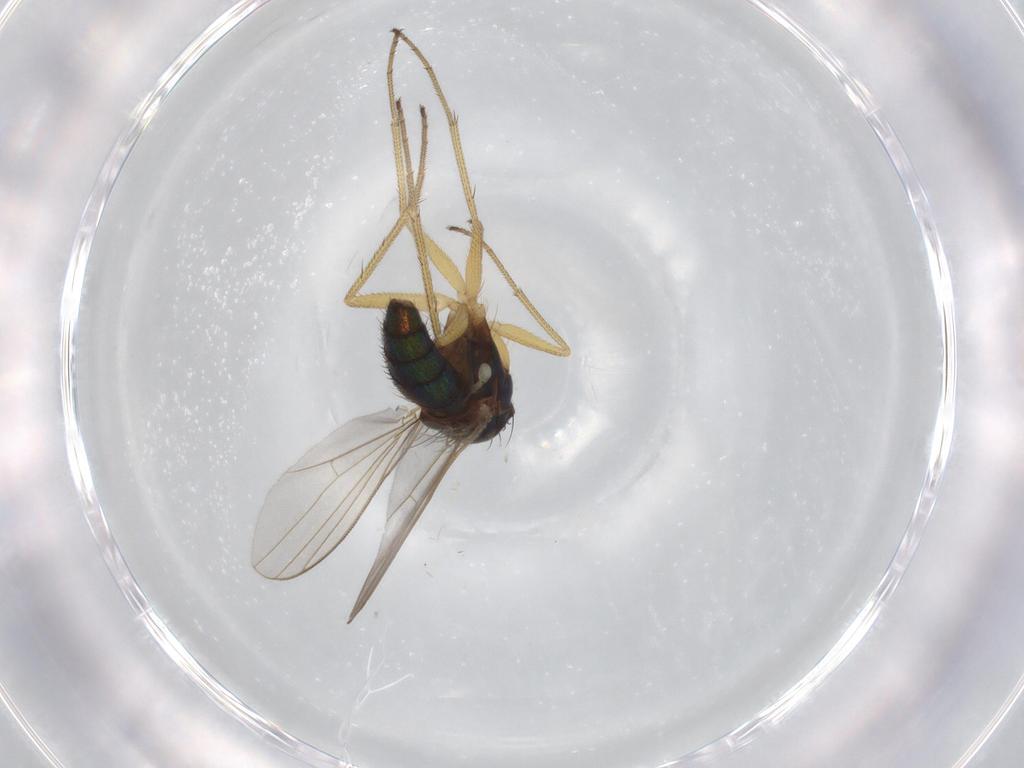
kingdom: Animalia
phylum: Arthropoda
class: Insecta
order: Diptera
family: Dolichopodidae
